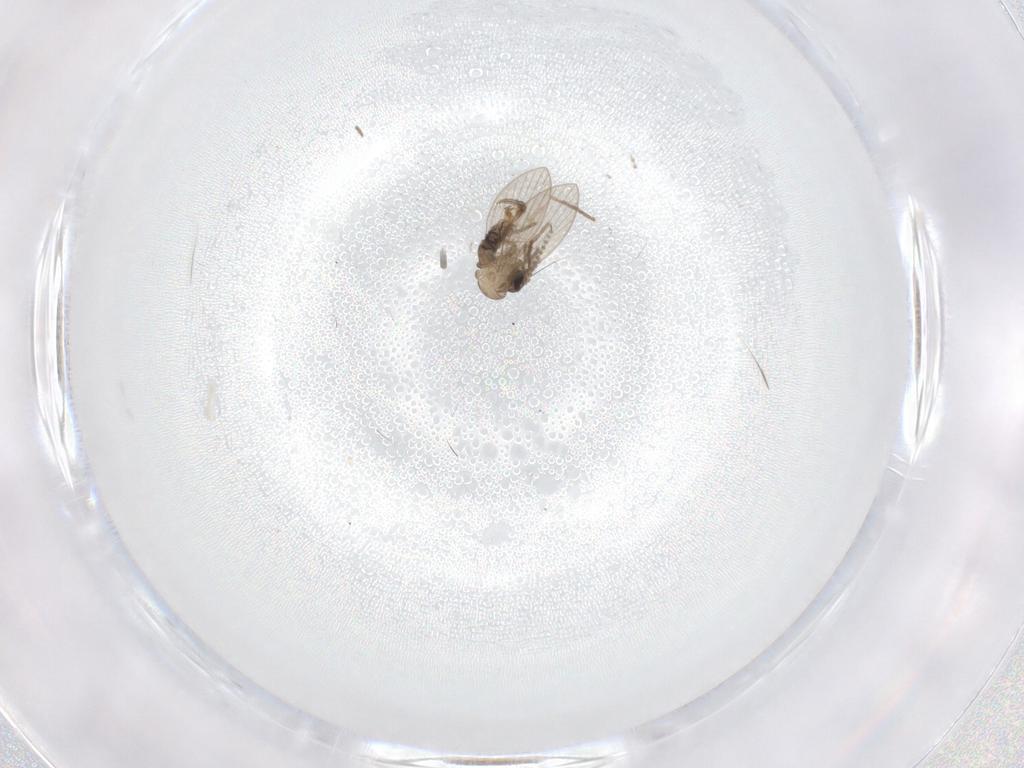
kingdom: Animalia
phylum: Arthropoda
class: Insecta
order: Diptera
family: Psychodidae
